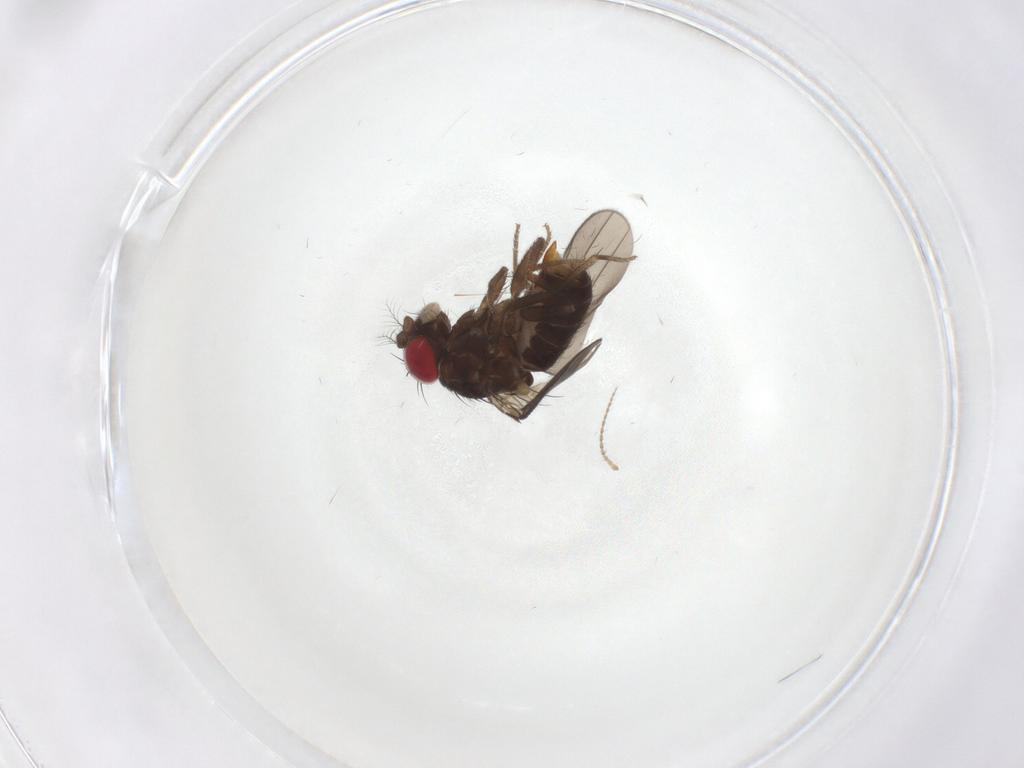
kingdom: Animalia
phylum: Arthropoda
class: Insecta
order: Diptera
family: Drosophilidae
